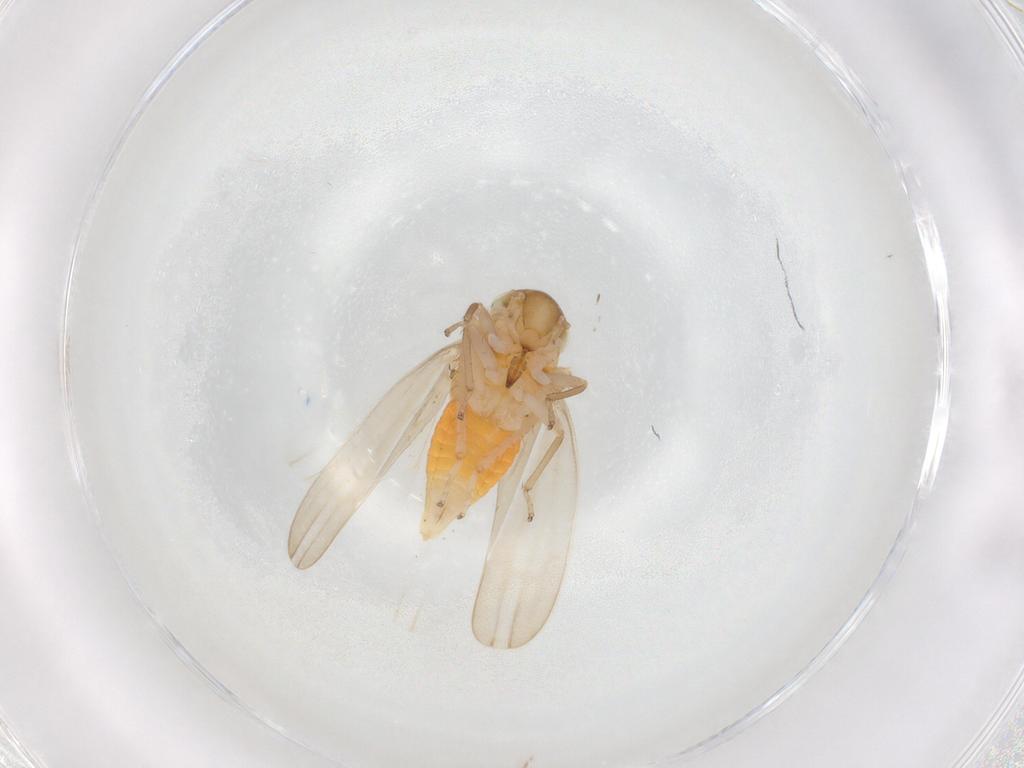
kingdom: Animalia
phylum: Arthropoda
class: Insecta
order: Hemiptera
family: Cicadellidae
